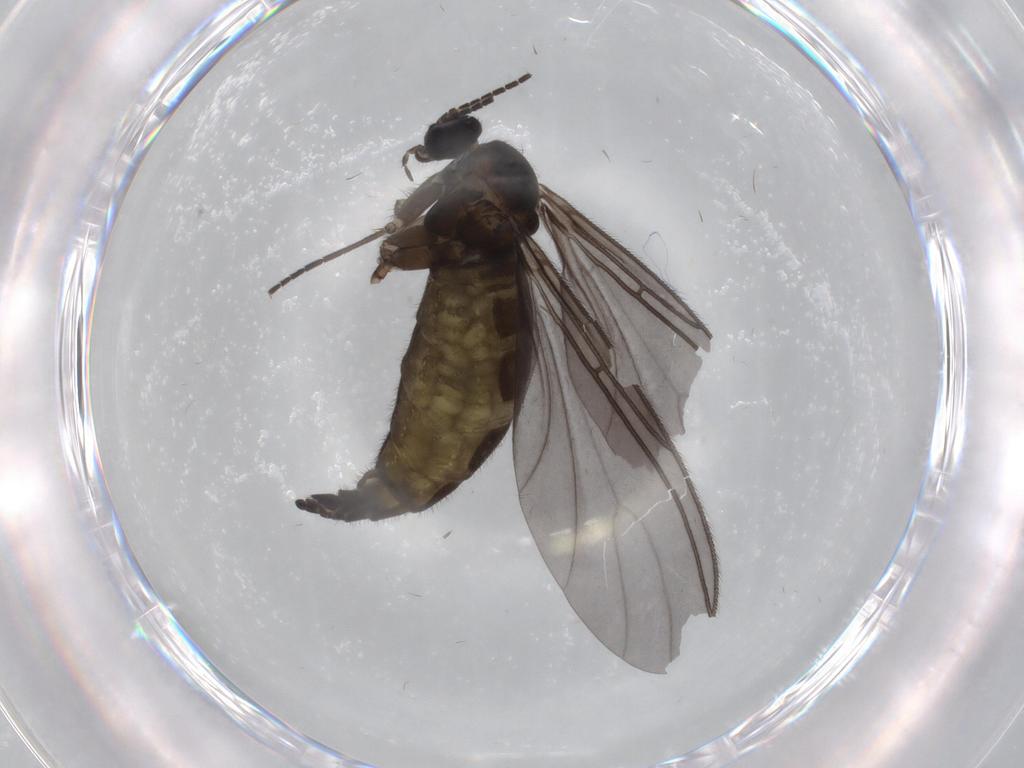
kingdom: Animalia
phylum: Arthropoda
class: Insecta
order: Diptera
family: Sciaridae
